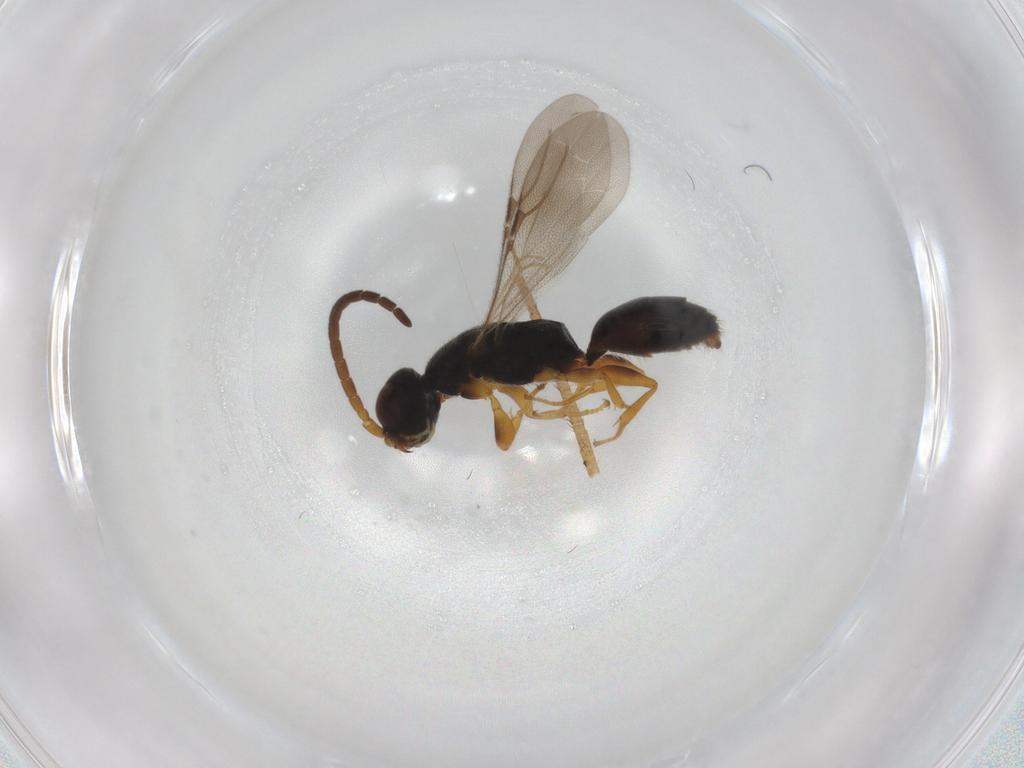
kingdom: Animalia
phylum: Arthropoda
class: Insecta
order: Hymenoptera
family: Bethylidae
